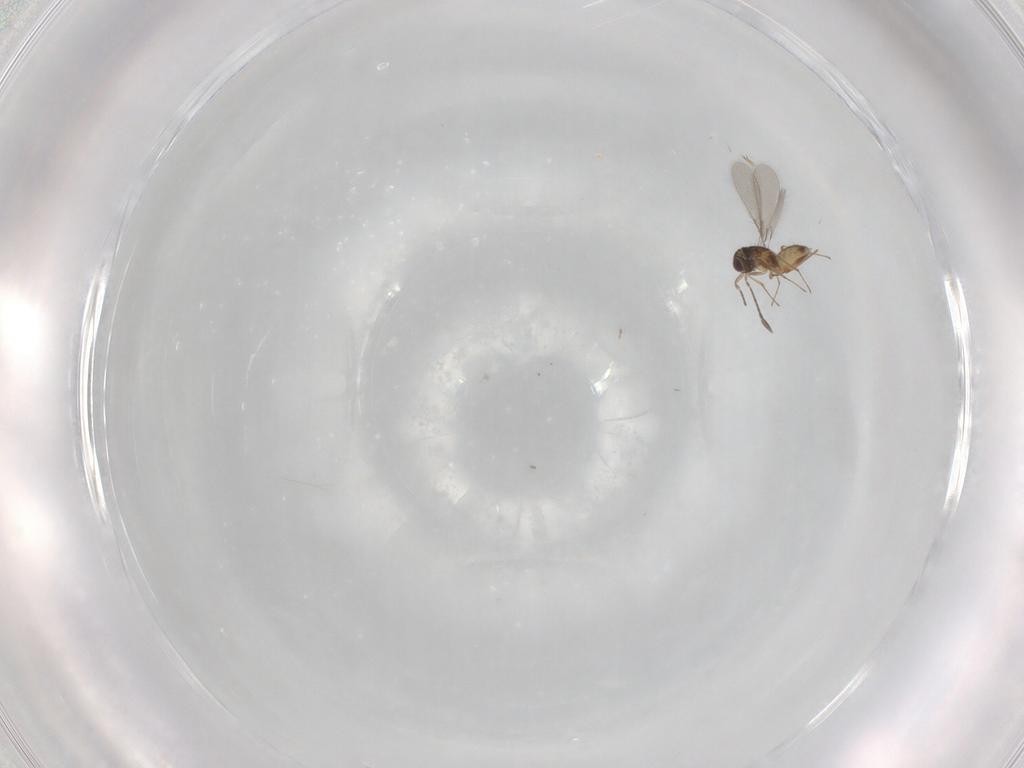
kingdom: Animalia
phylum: Arthropoda
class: Insecta
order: Hymenoptera
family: Mymaridae
